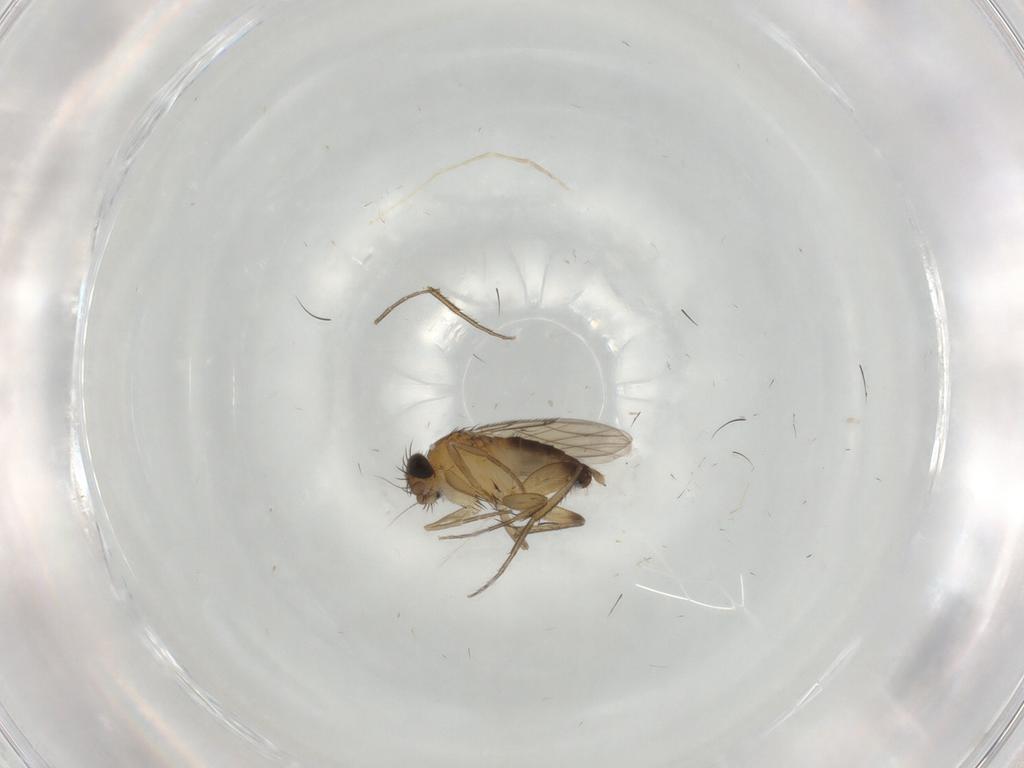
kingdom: Animalia
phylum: Arthropoda
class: Insecta
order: Diptera
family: Phoridae
